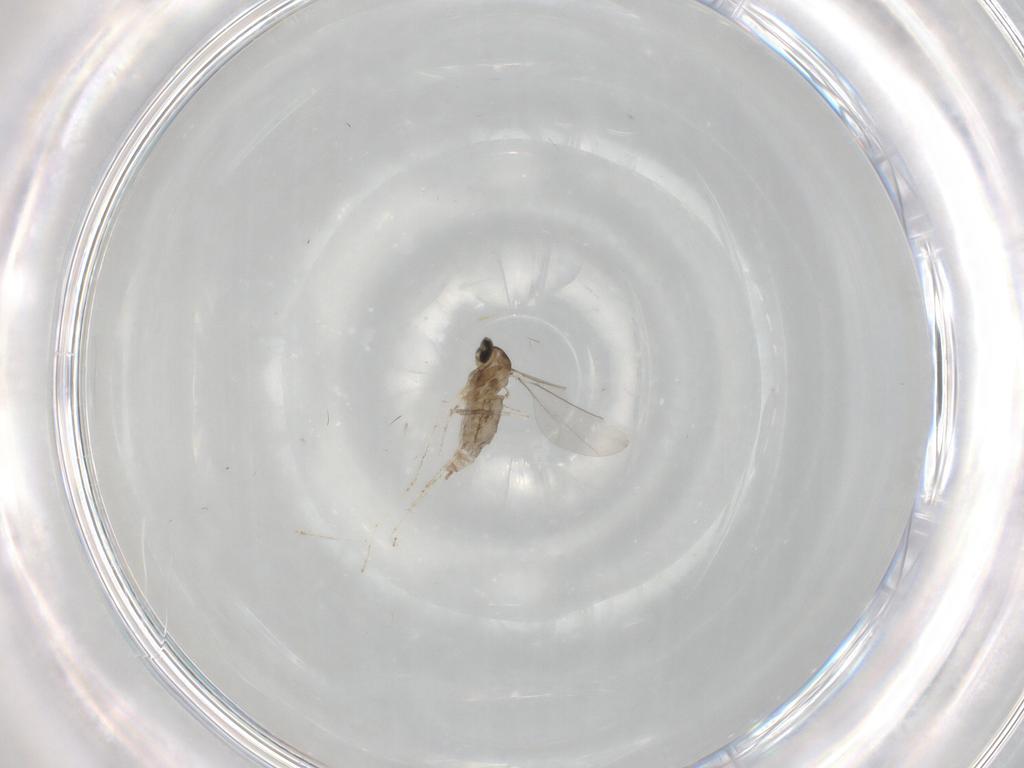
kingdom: Animalia
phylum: Arthropoda
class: Insecta
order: Diptera
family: Cecidomyiidae
